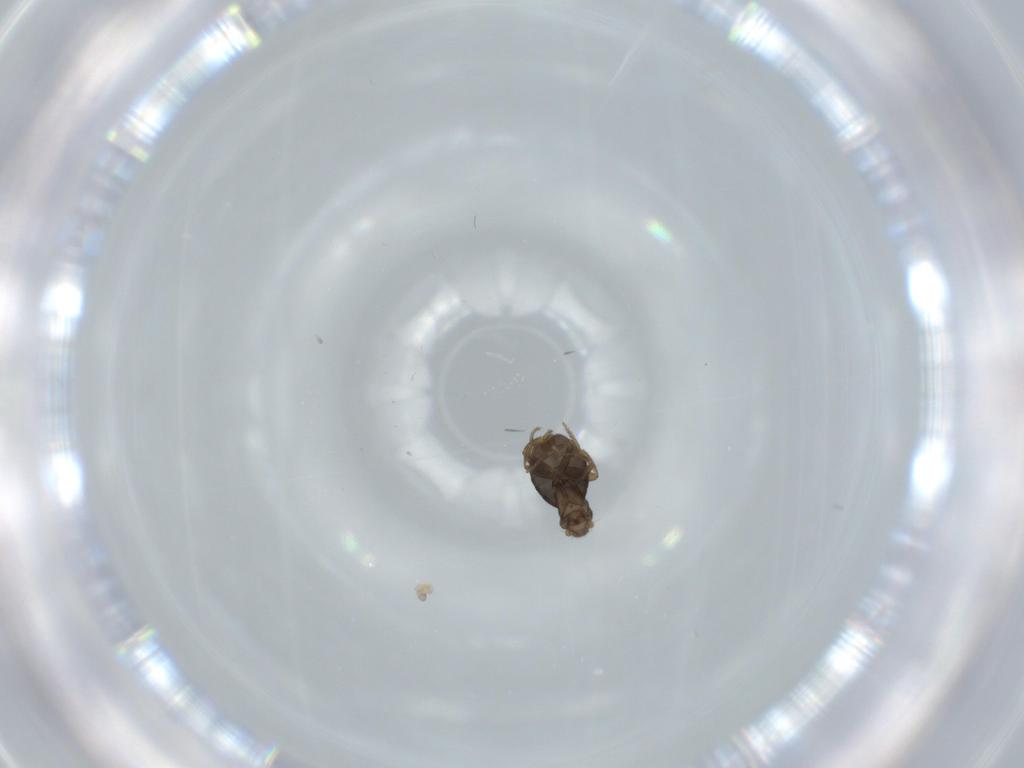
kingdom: Animalia
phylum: Arthropoda
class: Insecta
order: Diptera
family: Phoridae
